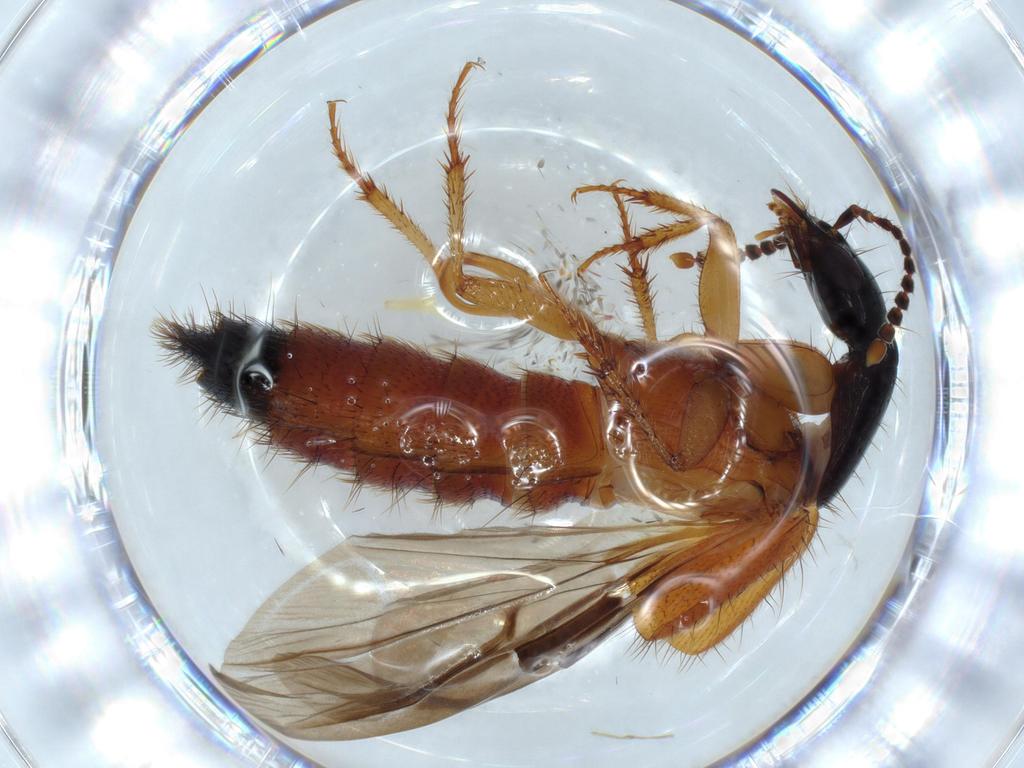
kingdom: Animalia
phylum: Arthropoda
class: Insecta
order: Coleoptera
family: Staphylinidae
